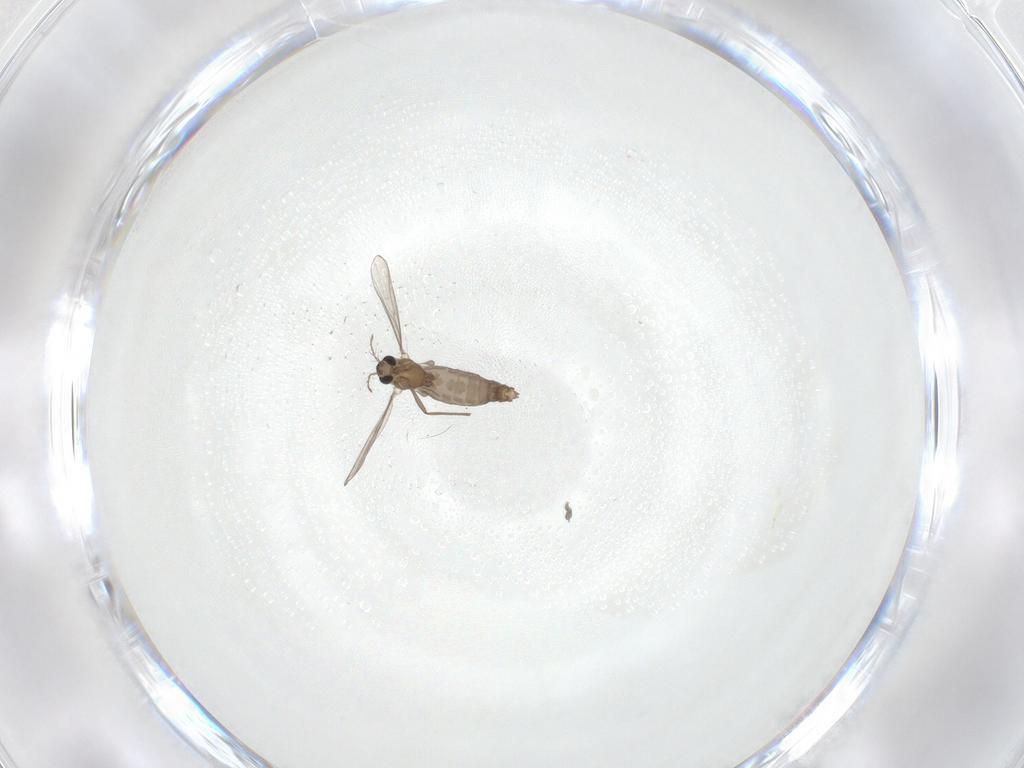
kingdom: Animalia
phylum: Arthropoda
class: Insecta
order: Diptera
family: Chironomidae
